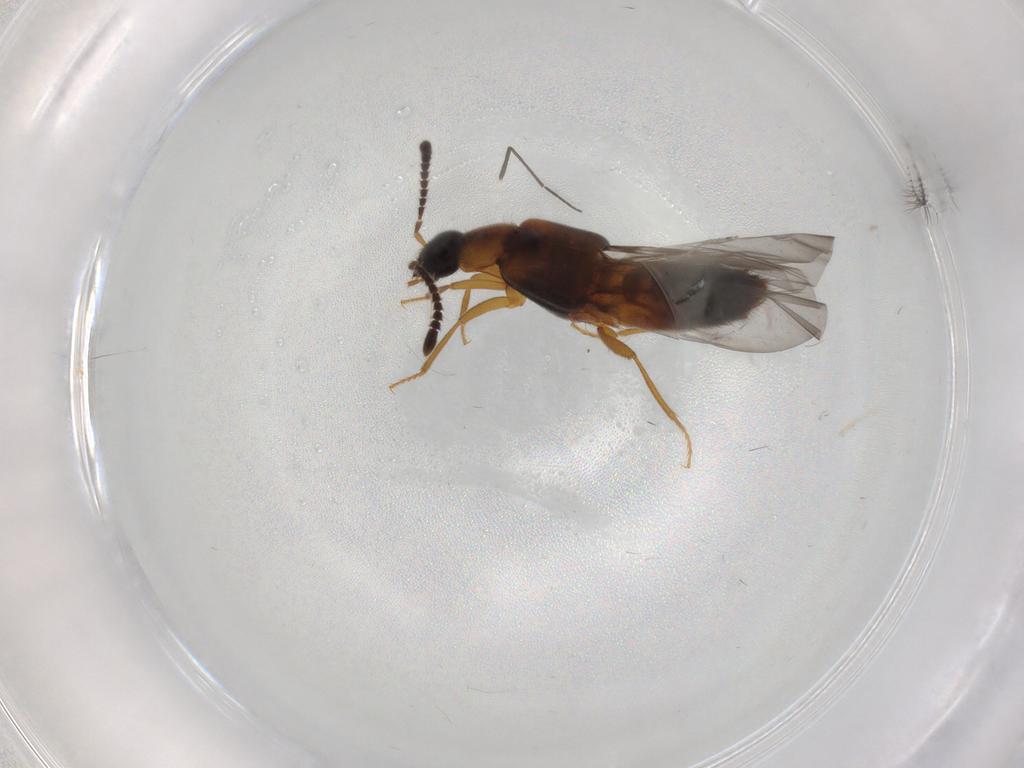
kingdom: Animalia
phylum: Arthropoda
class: Insecta
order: Coleoptera
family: Staphylinidae
